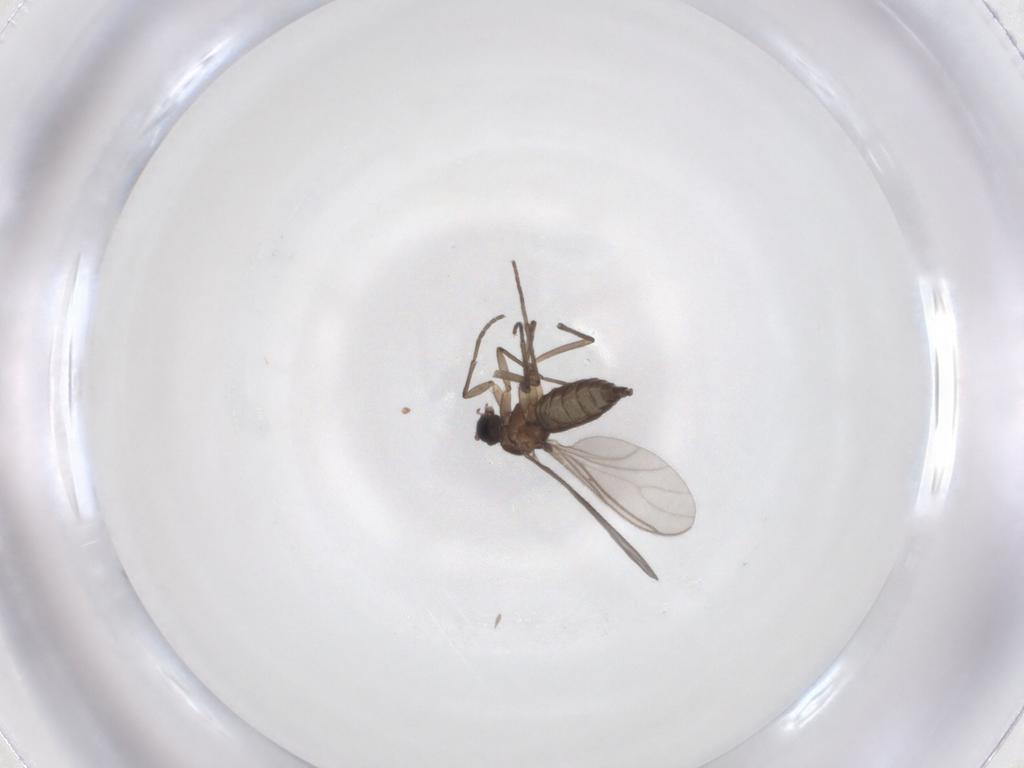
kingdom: Animalia
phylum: Arthropoda
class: Insecta
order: Diptera
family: Sciaridae
